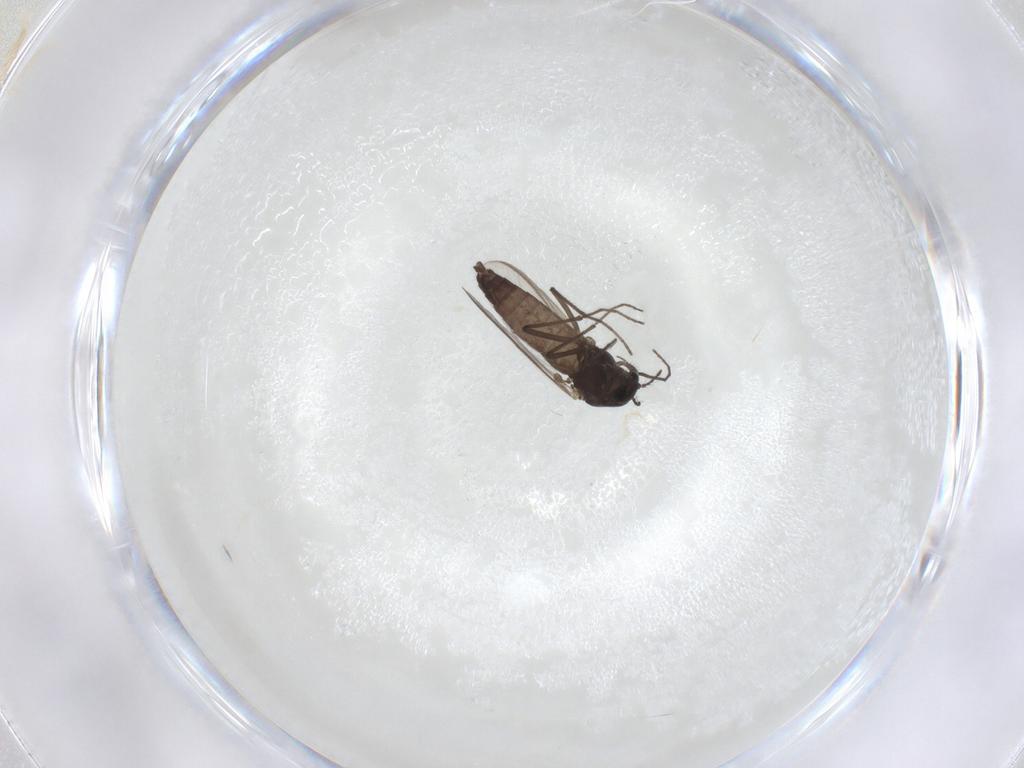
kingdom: Animalia
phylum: Arthropoda
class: Insecta
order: Diptera
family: Chironomidae
